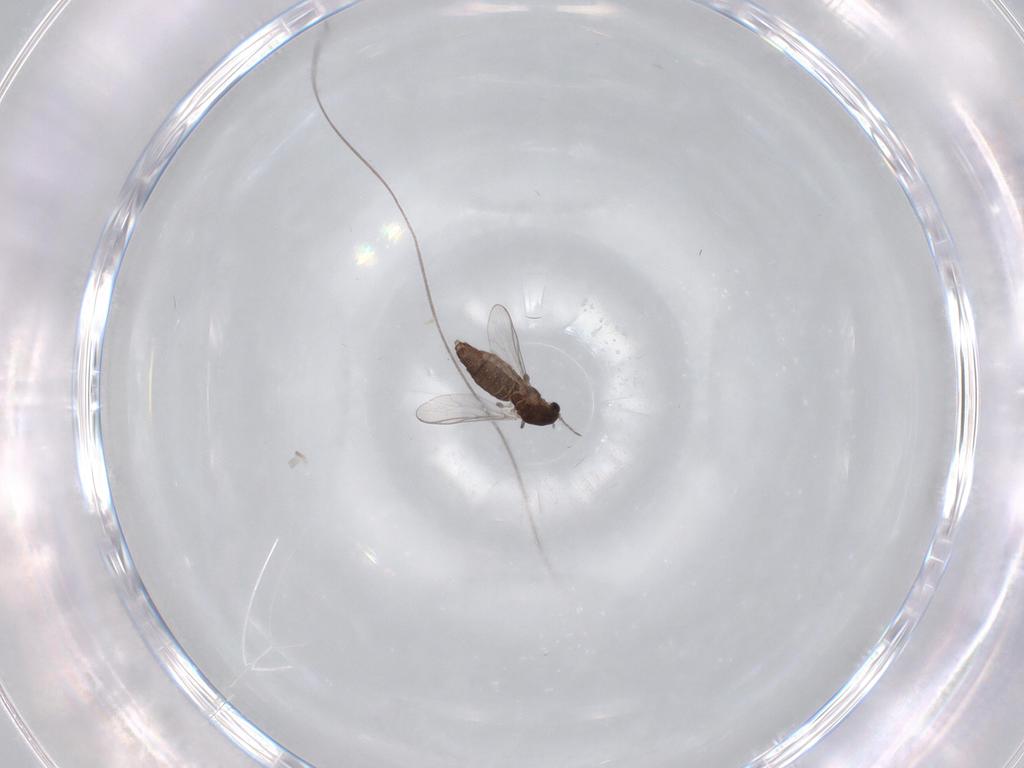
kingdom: Animalia
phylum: Arthropoda
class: Insecta
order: Diptera
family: Chironomidae
